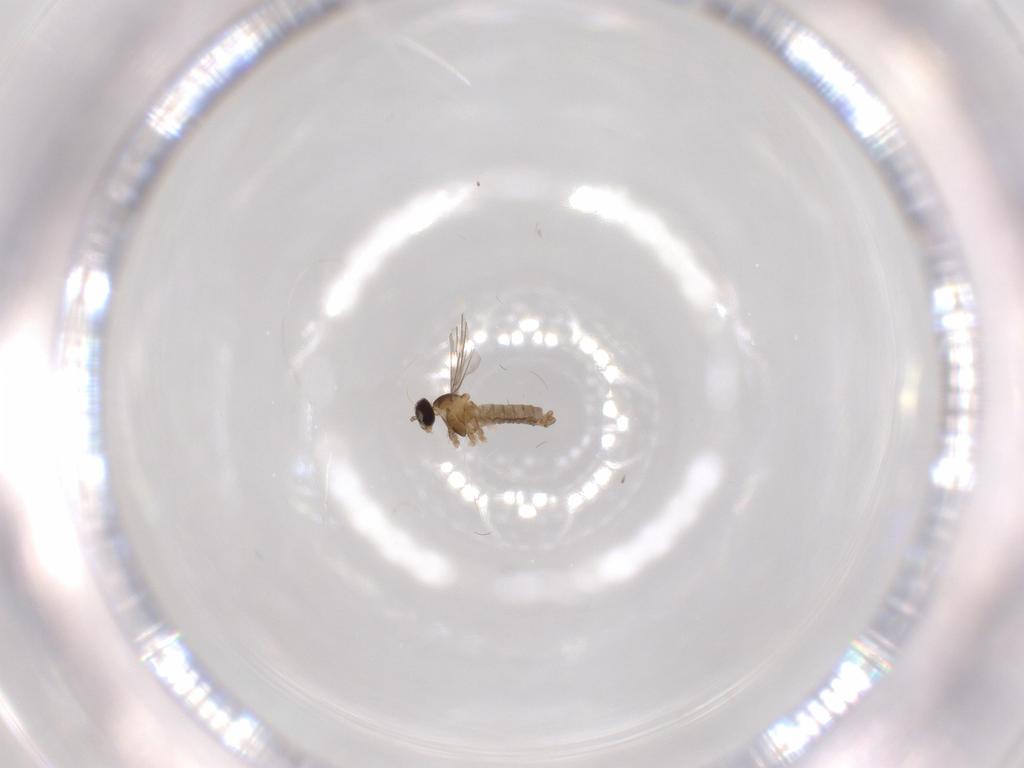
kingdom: Animalia
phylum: Arthropoda
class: Insecta
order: Diptera
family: Cecidomyiidae
